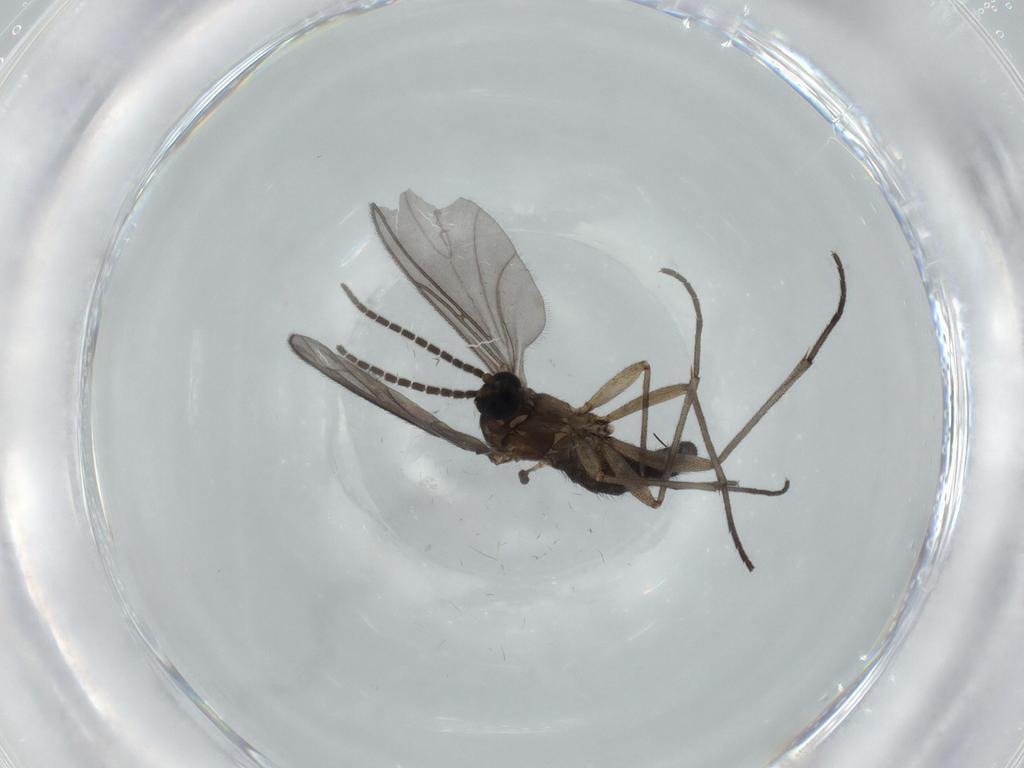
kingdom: Animalia
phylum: Arthropoda
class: Insecta
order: Diptera
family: Sciaridae
